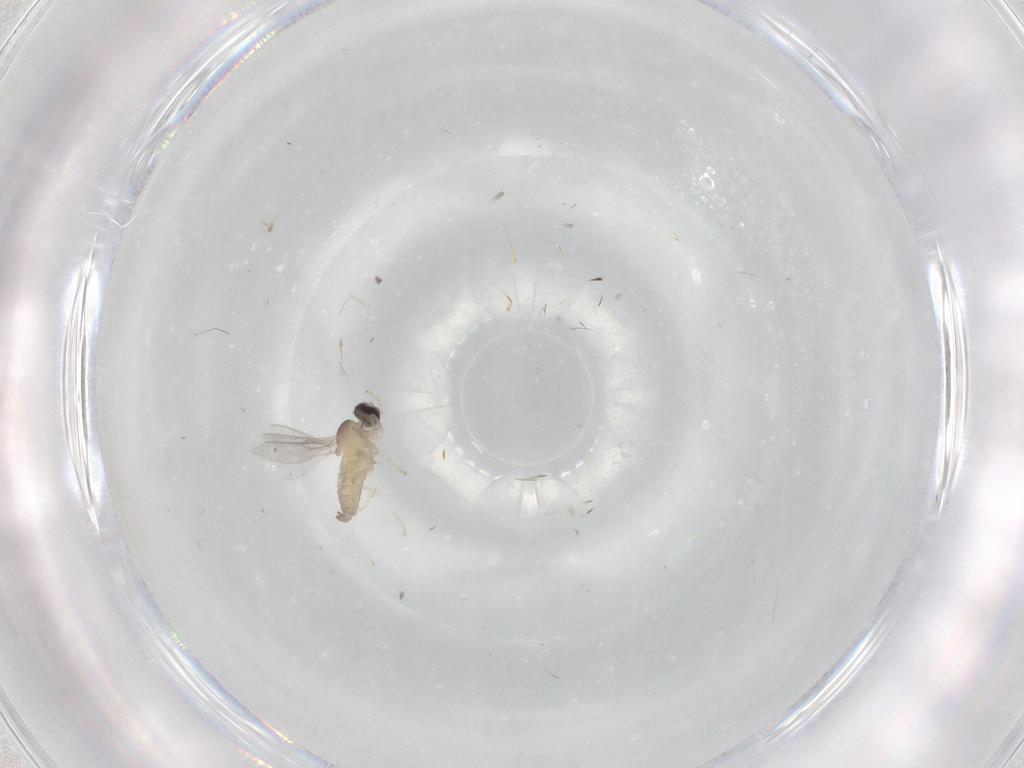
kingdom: Animalia
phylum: Arthropoda
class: Insecta
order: Diptera
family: Cecidomyiidae
